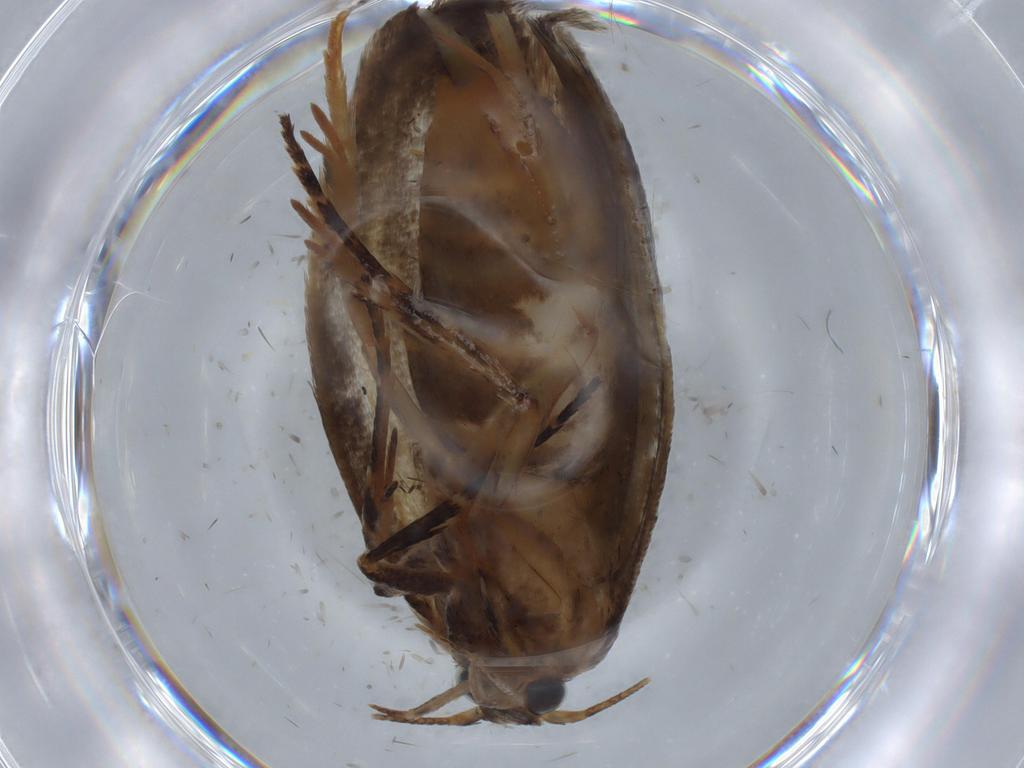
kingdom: Animalia
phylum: Arthropoda
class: Insecta
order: Lepidoptera
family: Oecophoridae
